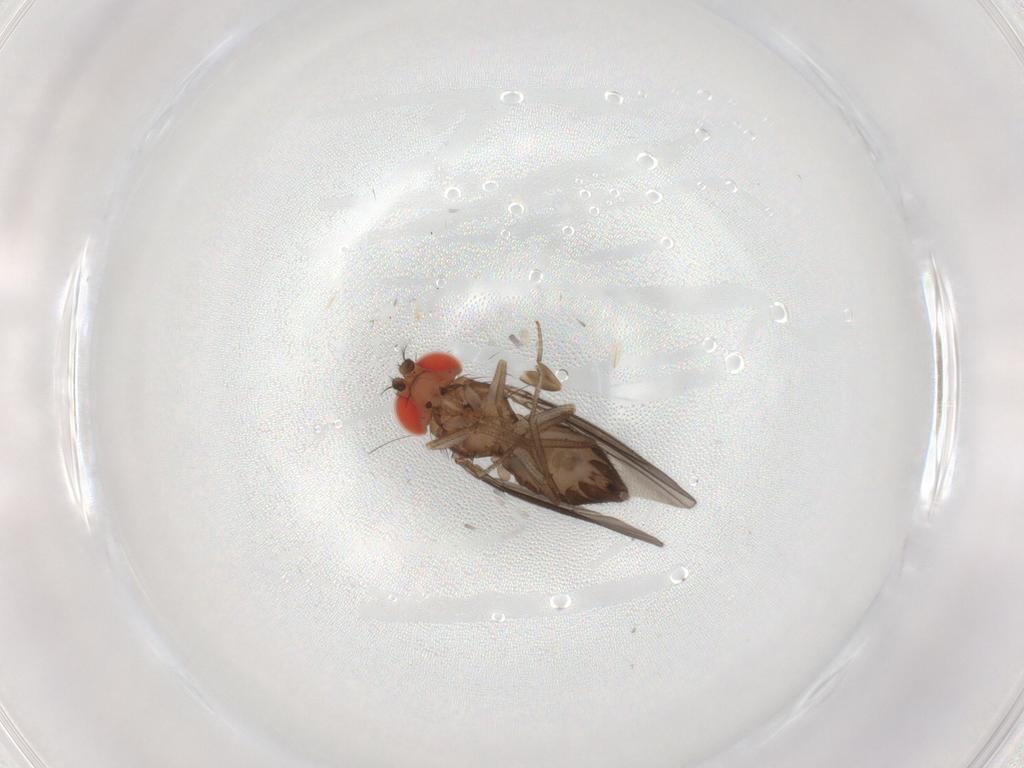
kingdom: Animalia
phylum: Arthropoda
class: Insecta
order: Diptera
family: Drosophilidae
